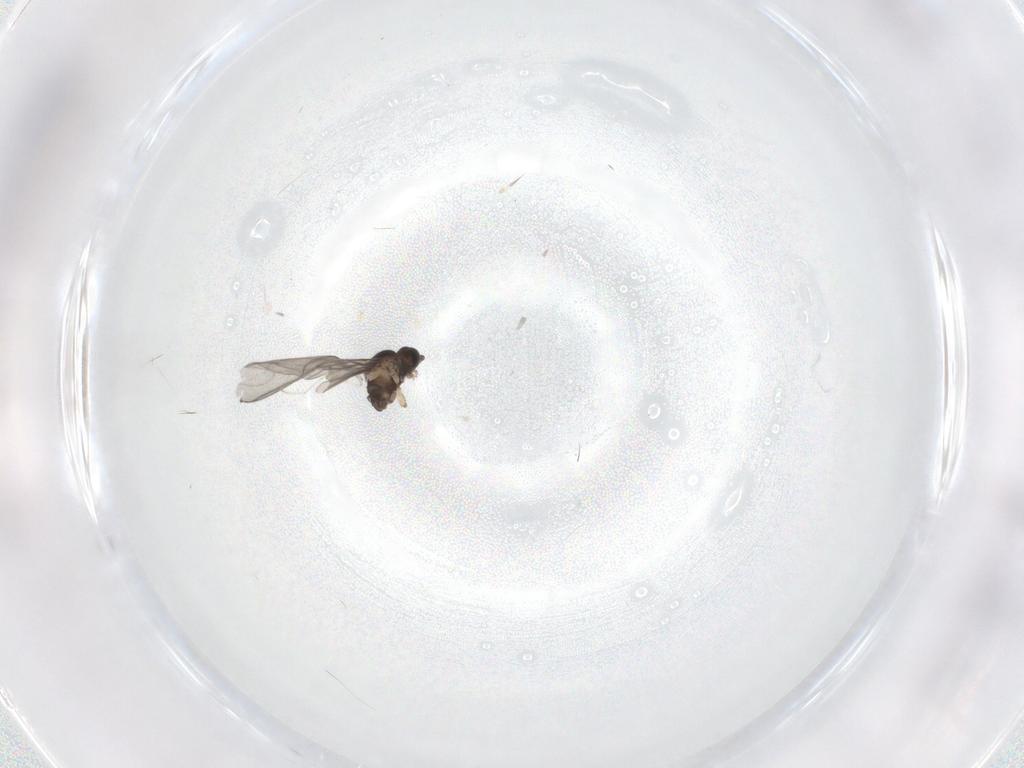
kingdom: Animalia
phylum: Arthropoda
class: Insecta
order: Diptera
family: Cecidomyiidae
